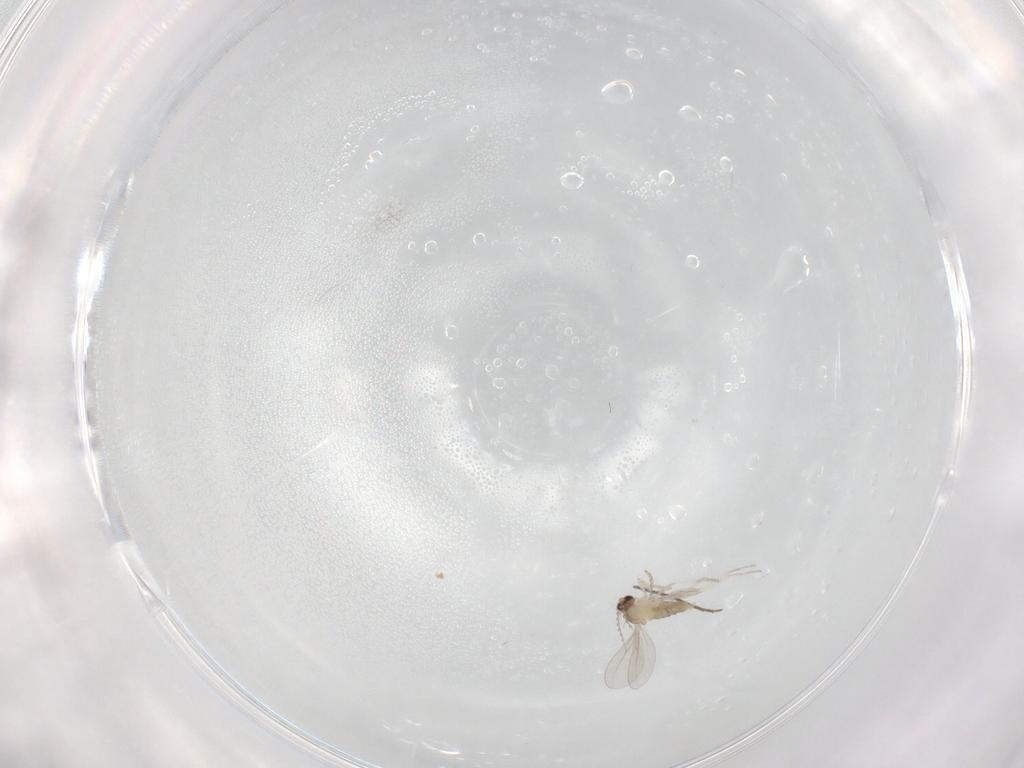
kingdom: Animalia
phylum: Arthropoda
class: Insecta
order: Diptera
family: Cecidomyiidae
